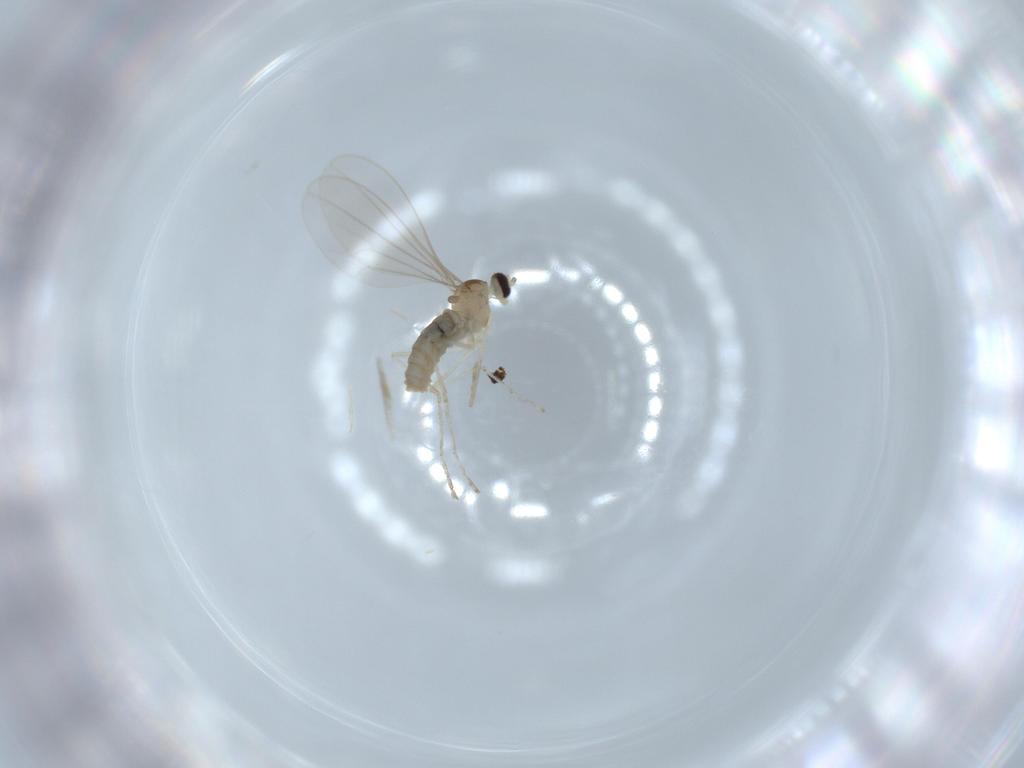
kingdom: Animalia
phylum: Arthropoda
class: Insecta
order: Diptera
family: Cecidomyiidae
